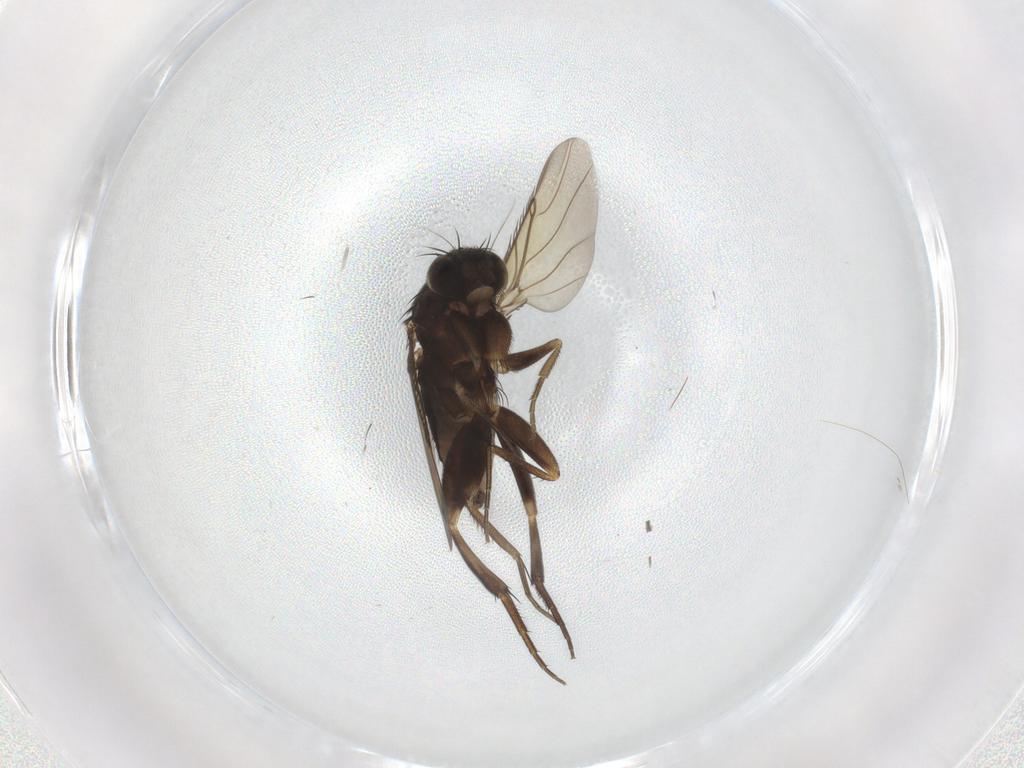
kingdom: Animalia
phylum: Arthropoda
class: Insecta
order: Diptera
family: Phoridae
